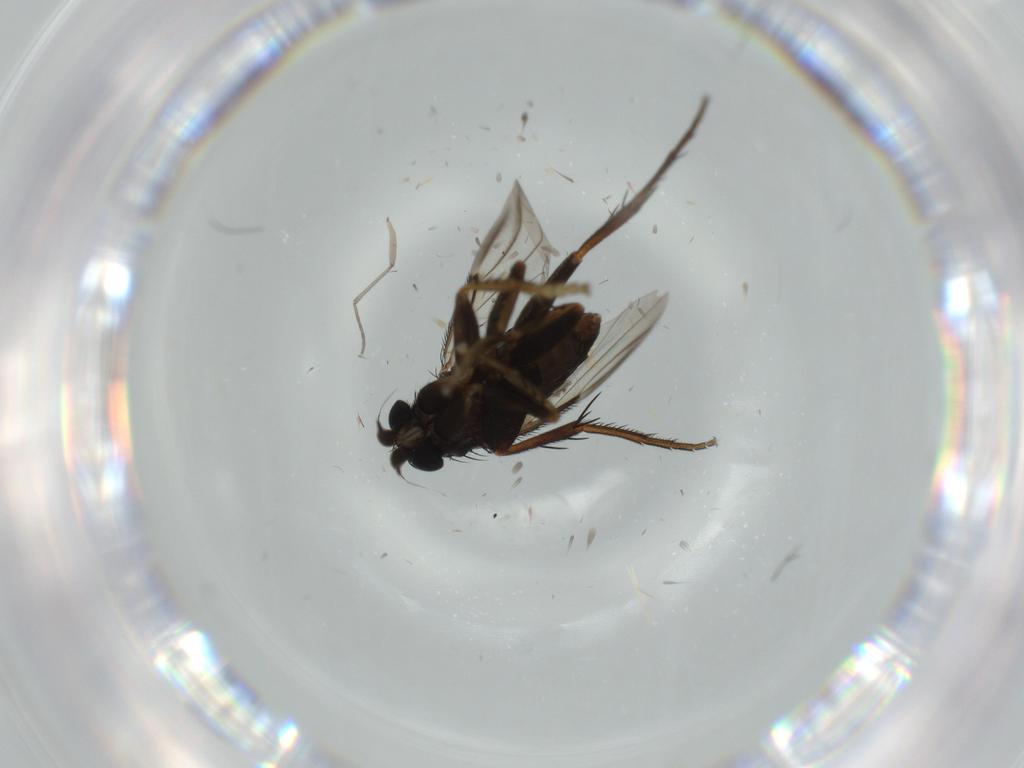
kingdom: Animalia
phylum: Arthropoda
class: Insecta
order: Diptera
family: Phoridae
